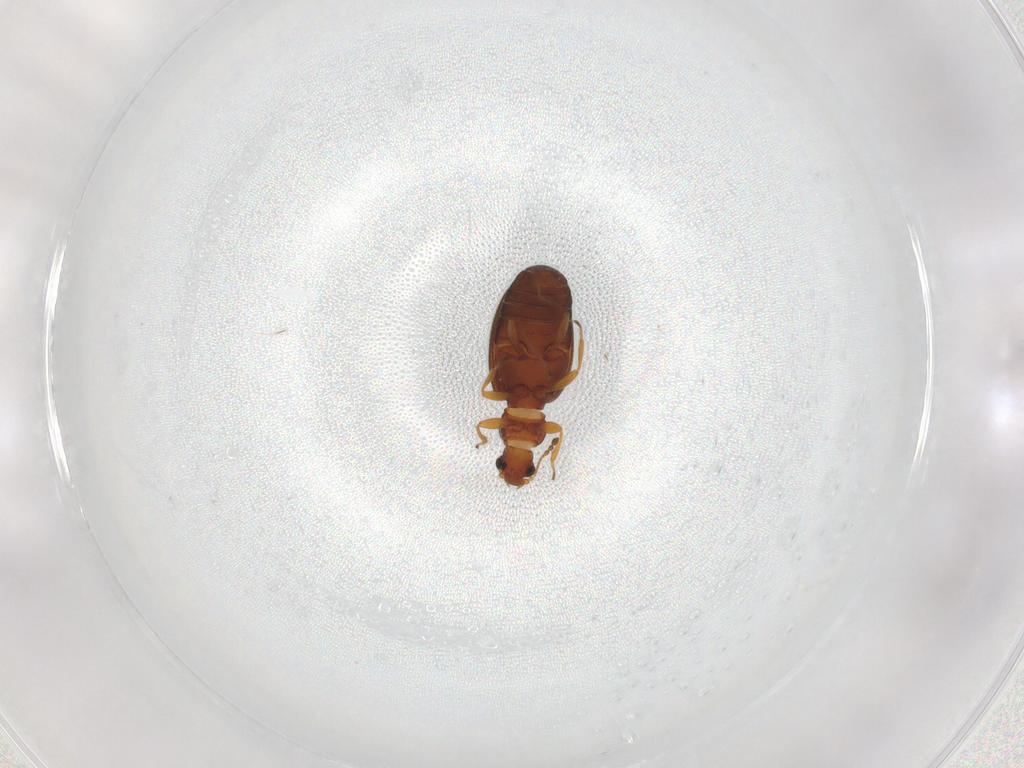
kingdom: Animalia
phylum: Arthropoda
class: Insecta
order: Coleoptera
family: Latridiidae
